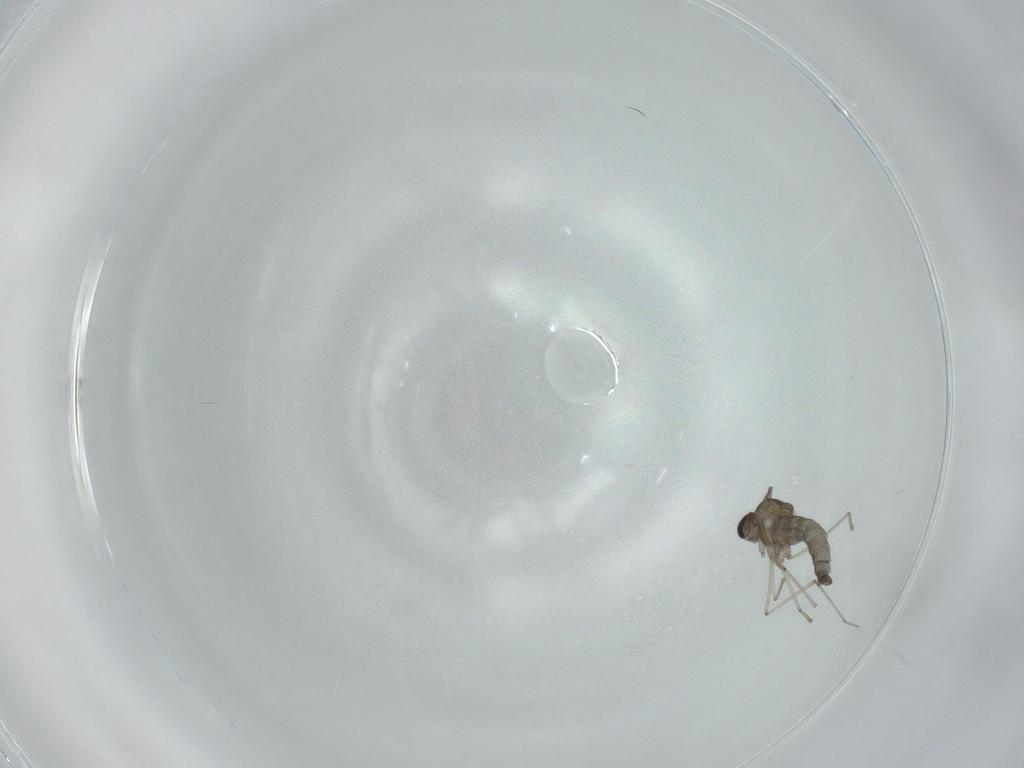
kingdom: Animalia
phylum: Arthropoda
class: Insecta
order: Diptera
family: Cecidomyiidae
